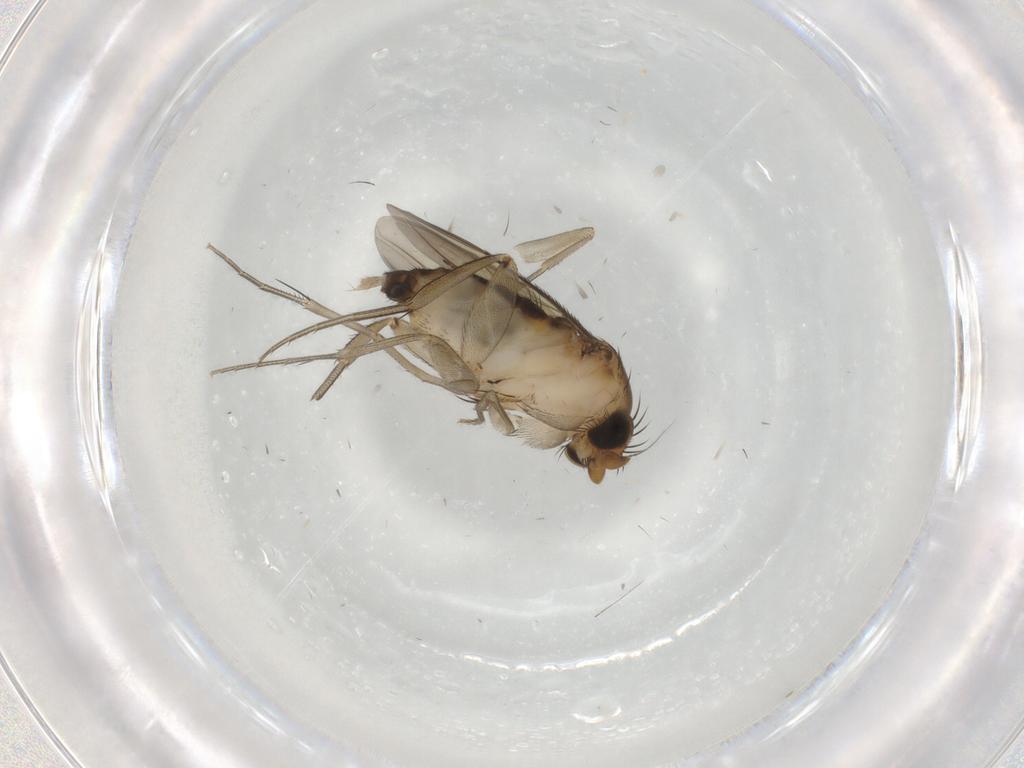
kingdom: Animalia
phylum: Arthropoda
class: Insecta
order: Diptera
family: Phoridae
